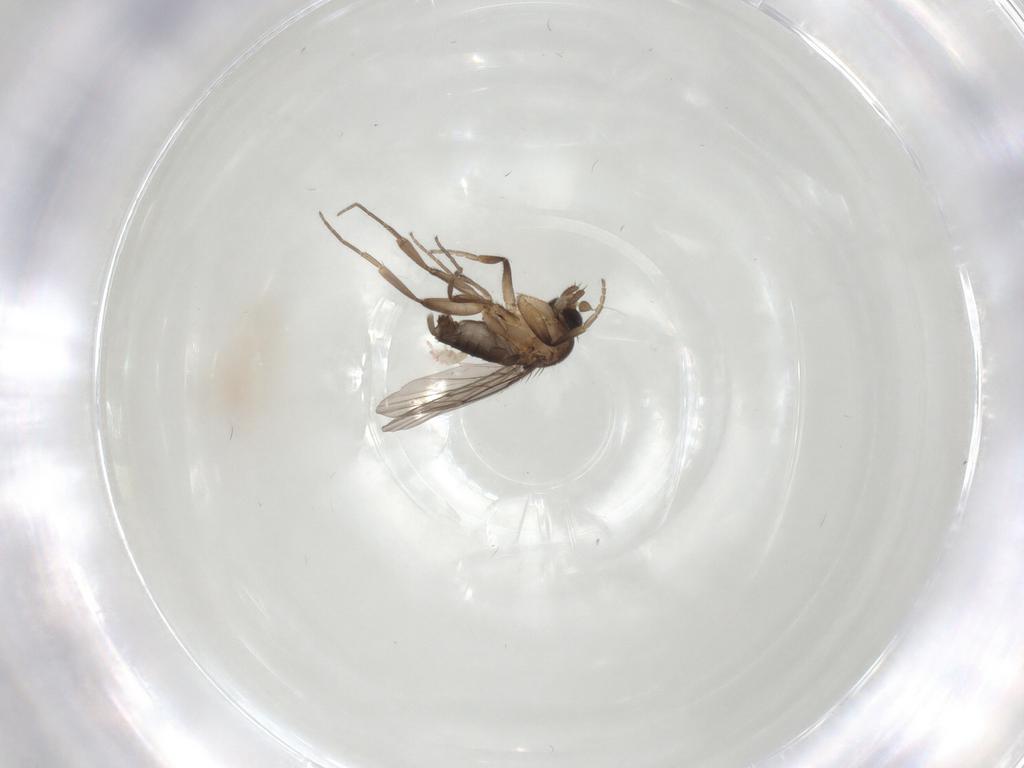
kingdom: Animalia
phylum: Arthropoda
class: Insecta
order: Diptera
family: Phoridae
